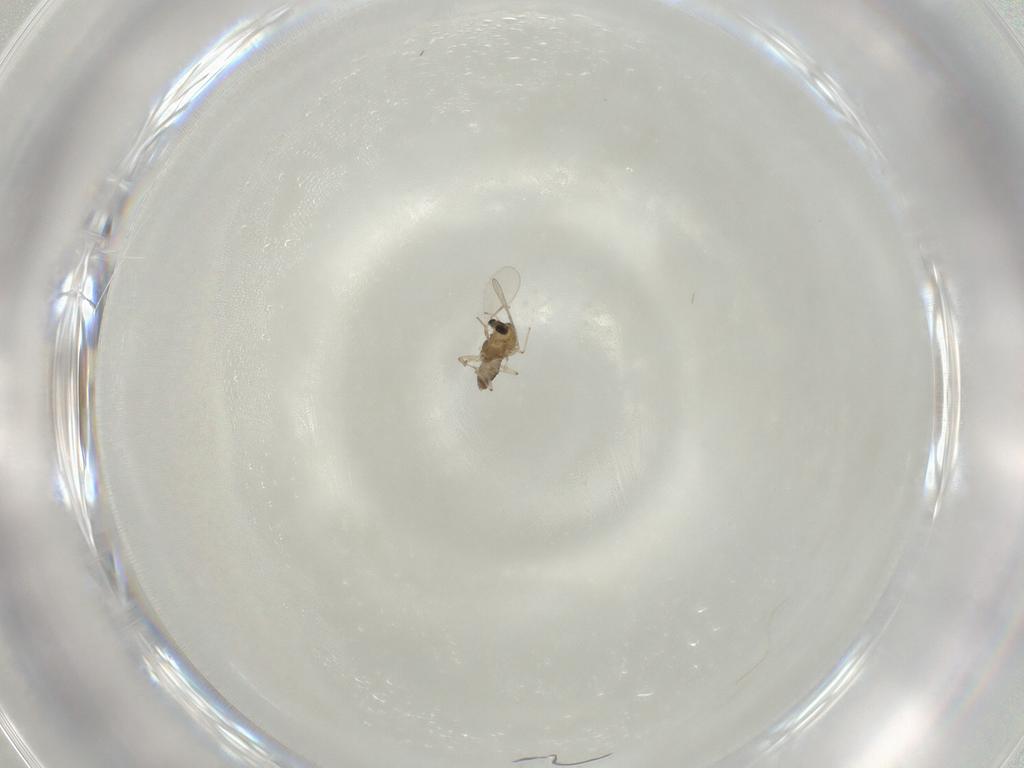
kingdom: Animalia
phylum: Arthropoda
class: Insecta
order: Diptera
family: Chironomidae
